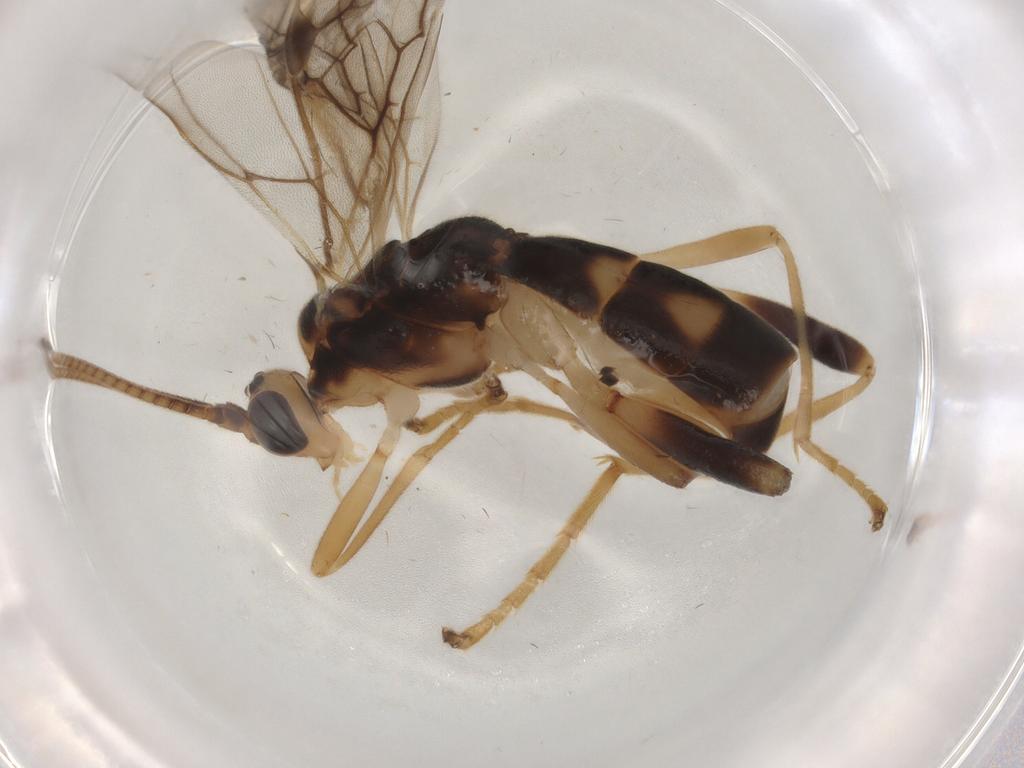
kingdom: Animalia
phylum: Arthropoda
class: Insecta
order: Hymenoptera
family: Braconidae
